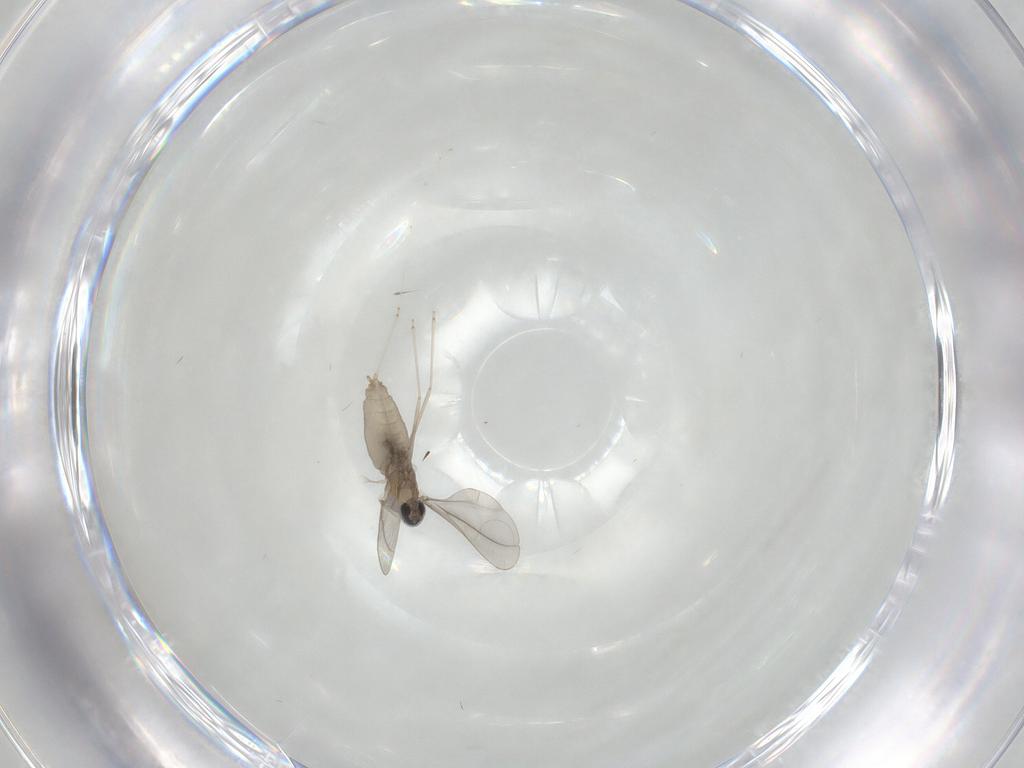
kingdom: Animalia
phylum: Arthropoda
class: Insecta
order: Diptera
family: Cecidomyiidae
